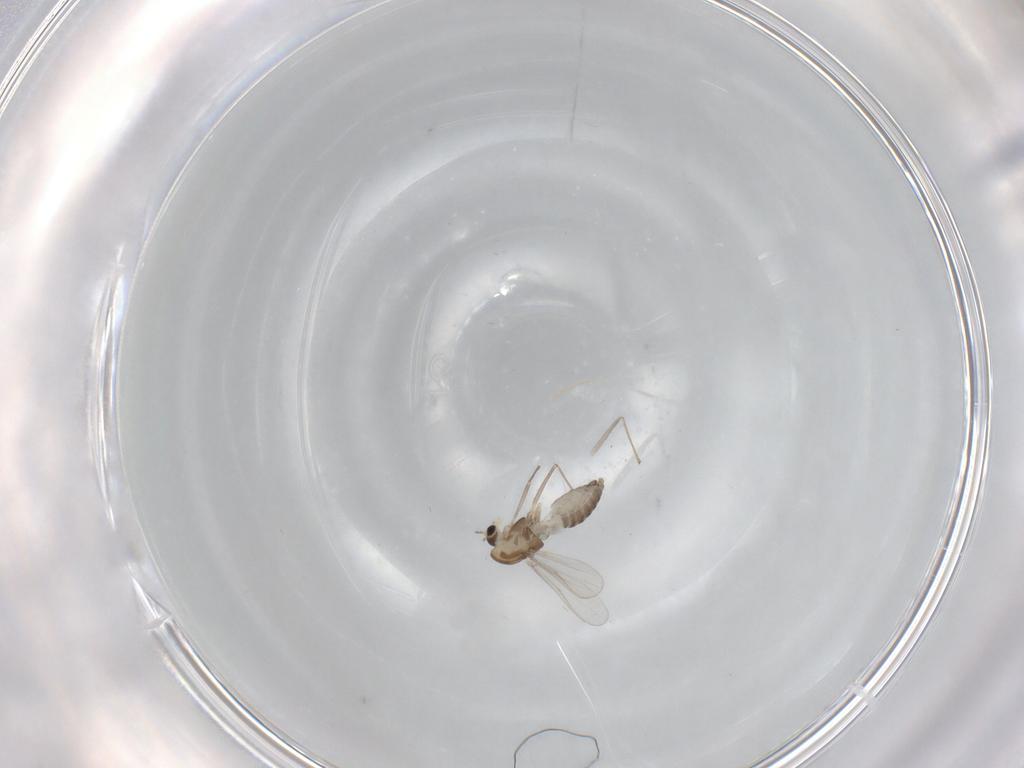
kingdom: Animalia
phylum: Arthropoda
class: Insecta
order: Diptera
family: Chironomidae
